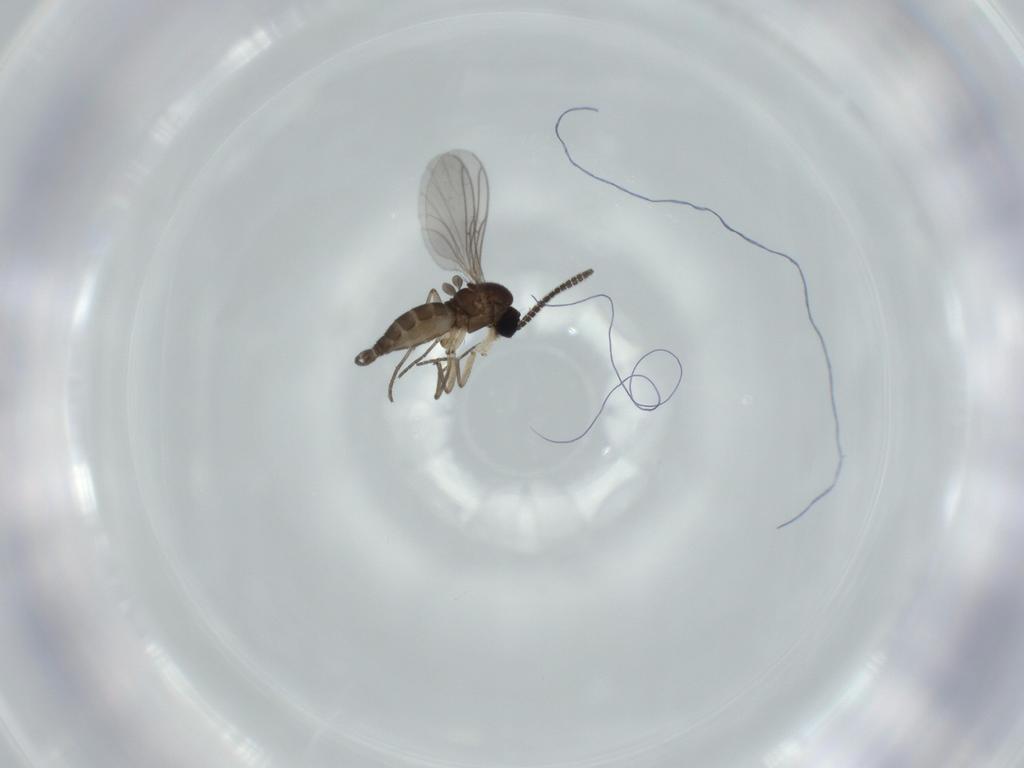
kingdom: Animalia
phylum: Arthropoda
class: Insecta
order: Diptera
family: Sciaridae
